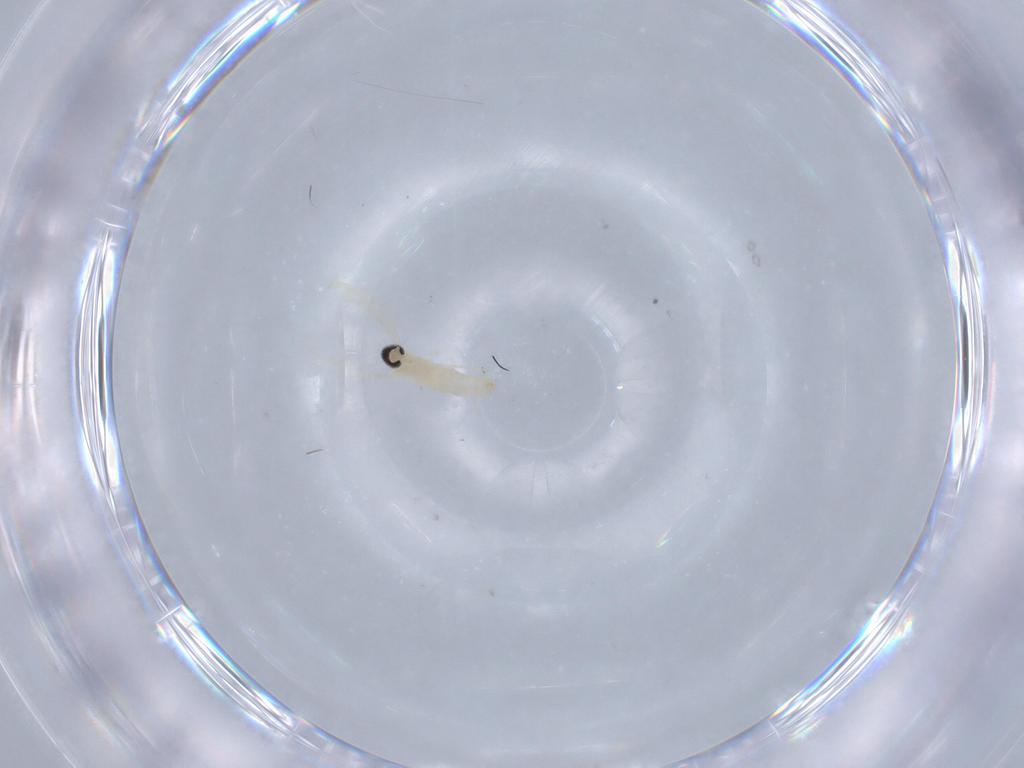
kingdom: Animalia
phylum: Arthropoda
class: Insecta
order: Diptera
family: Cecidomyiidae
